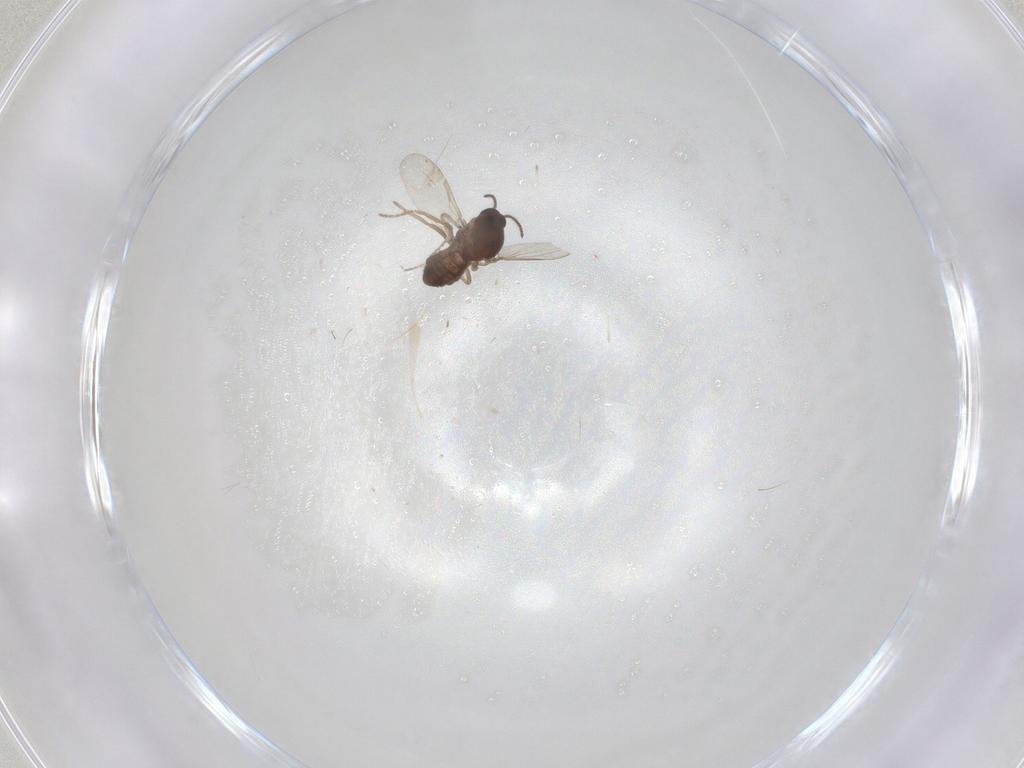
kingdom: Animalia
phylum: Arthropoda
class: Insecta
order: Diptera
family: Ceratopogonidae
